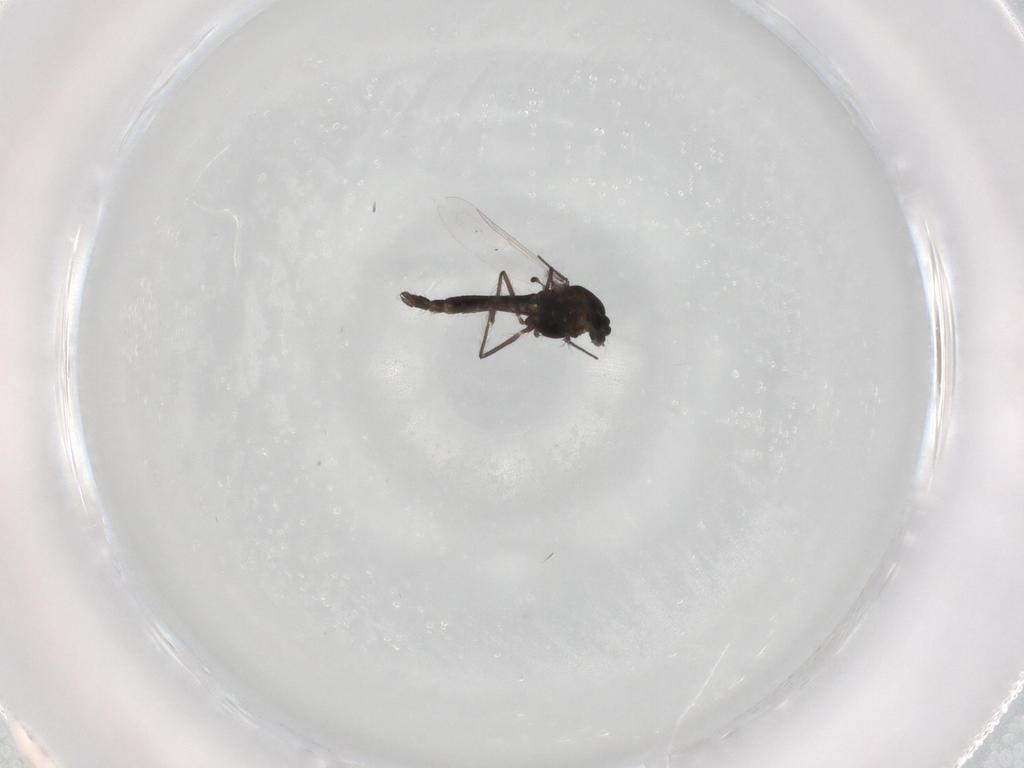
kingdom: Animalia
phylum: Arthropoda
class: Insecta
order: Diptera
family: Chironomidae
